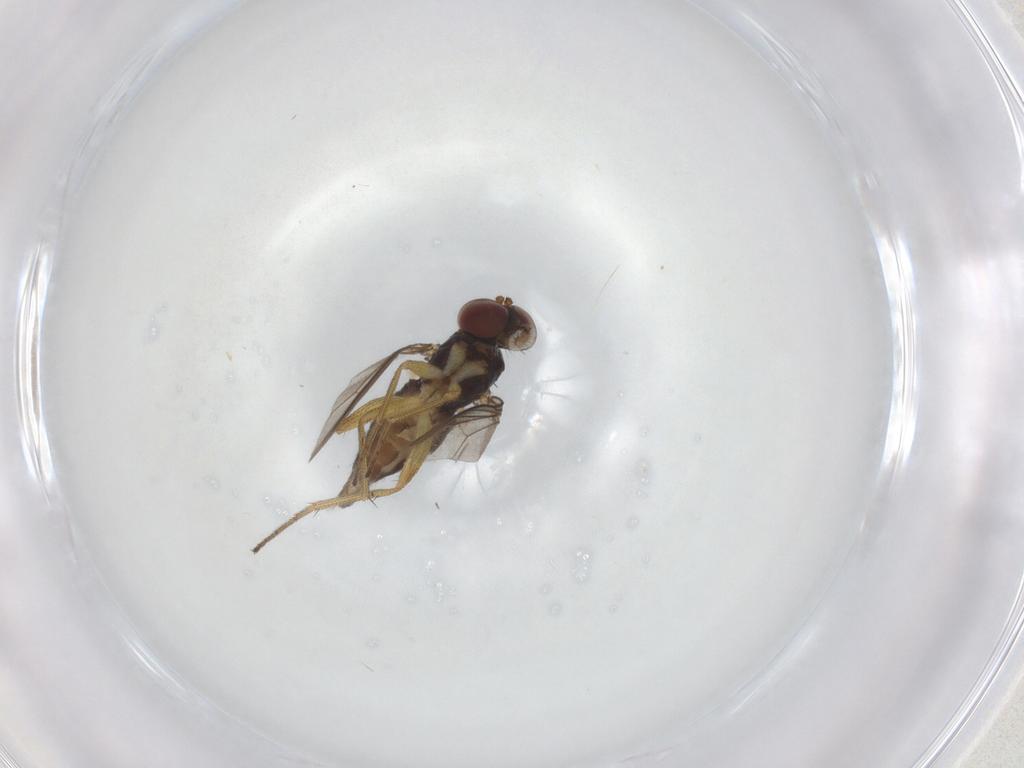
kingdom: Animalia
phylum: Arthropoda
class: Insecta
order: Diptera
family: Dolichopodidae
